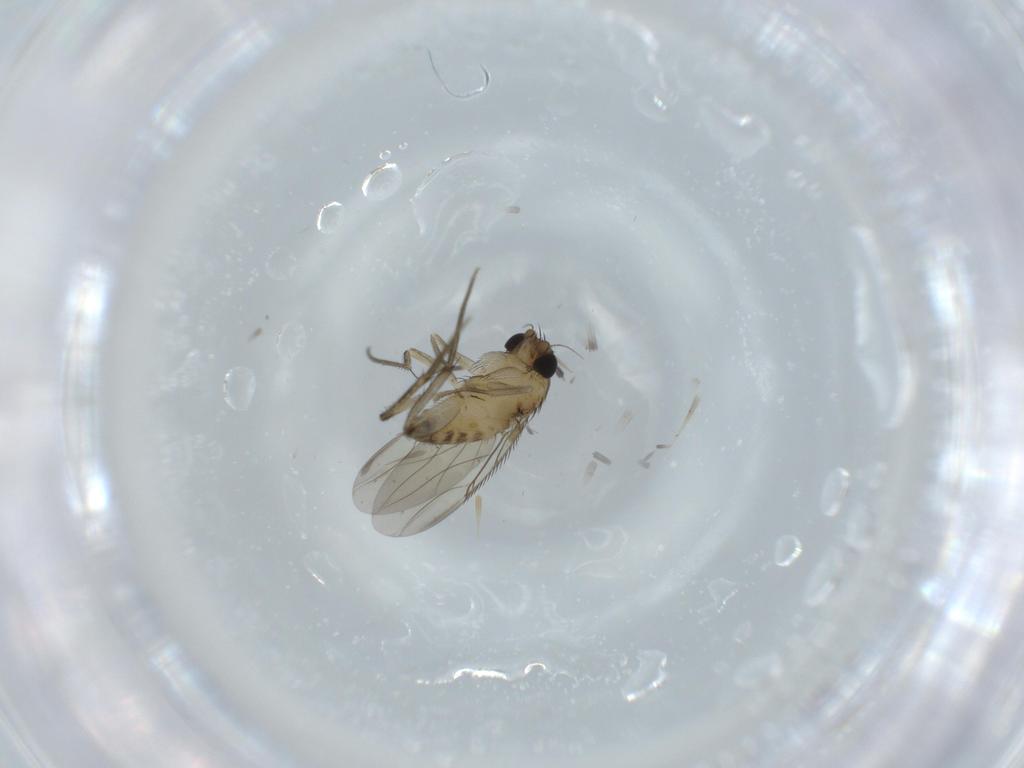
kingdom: Animalia
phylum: Arthropoda
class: Insecta
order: Diptera
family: Phoridae
